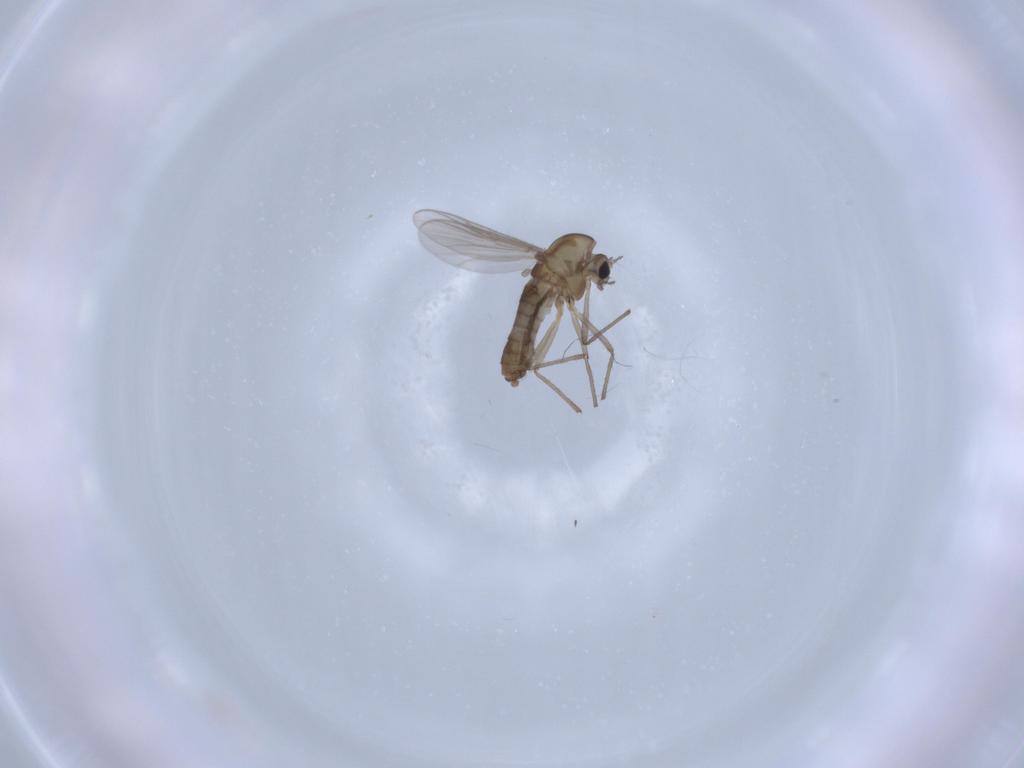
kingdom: Animalia
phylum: Arthropoda
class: Insecta
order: Diptera
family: Chironomidae
